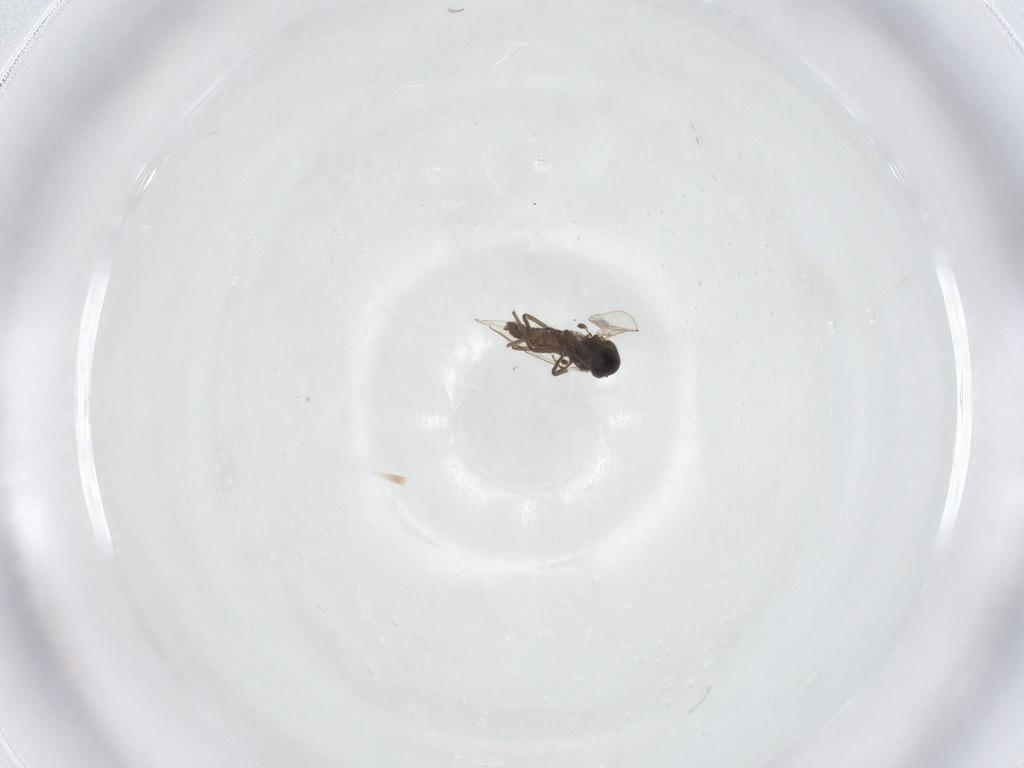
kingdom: Animalia
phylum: Arthropoda
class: Insecta
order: Diptera
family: Chironomidae
